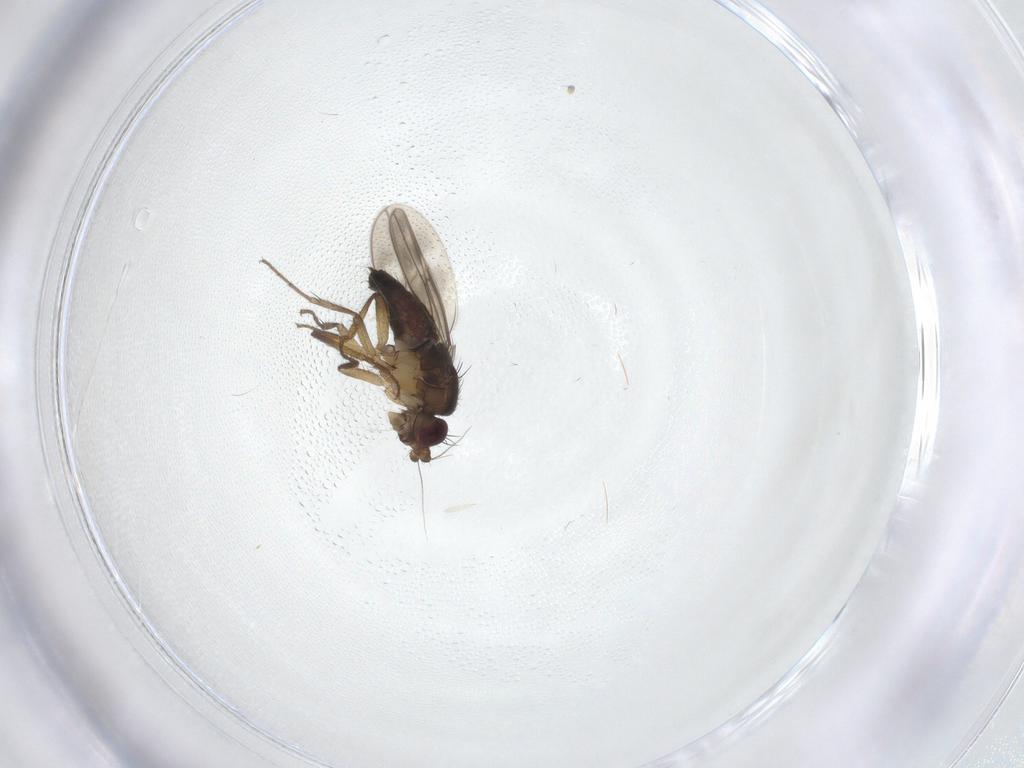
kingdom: Animalia
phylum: Arthropoda
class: Insecta
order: Diptera
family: Sphaeroceridae
